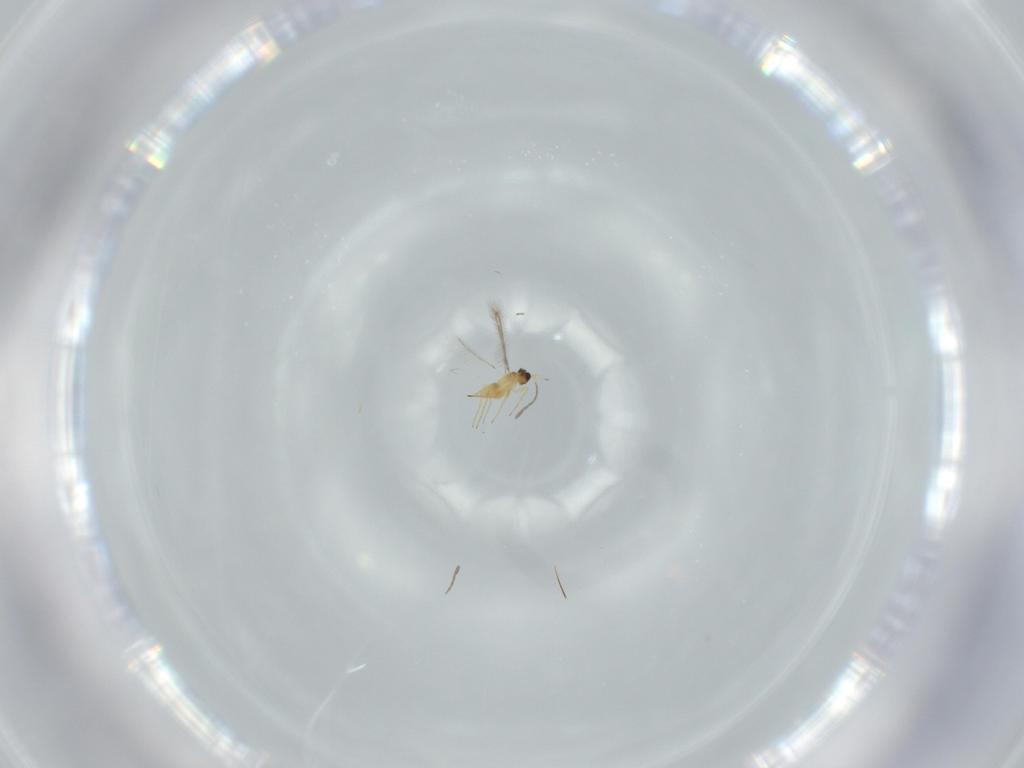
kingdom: Animalia
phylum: Arthropoda
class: Insecta
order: Hymenoptera
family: Mymaridae
